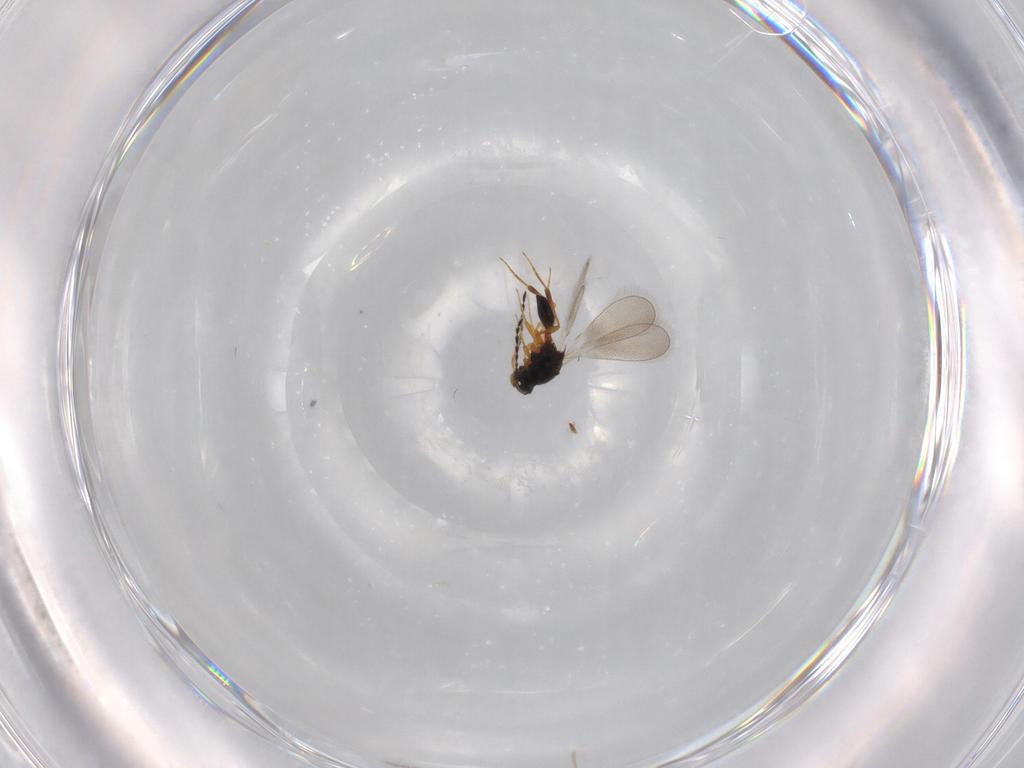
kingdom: Animalia
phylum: Arthropoda
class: Insecta
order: Hymenoptera
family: Platygastridae
